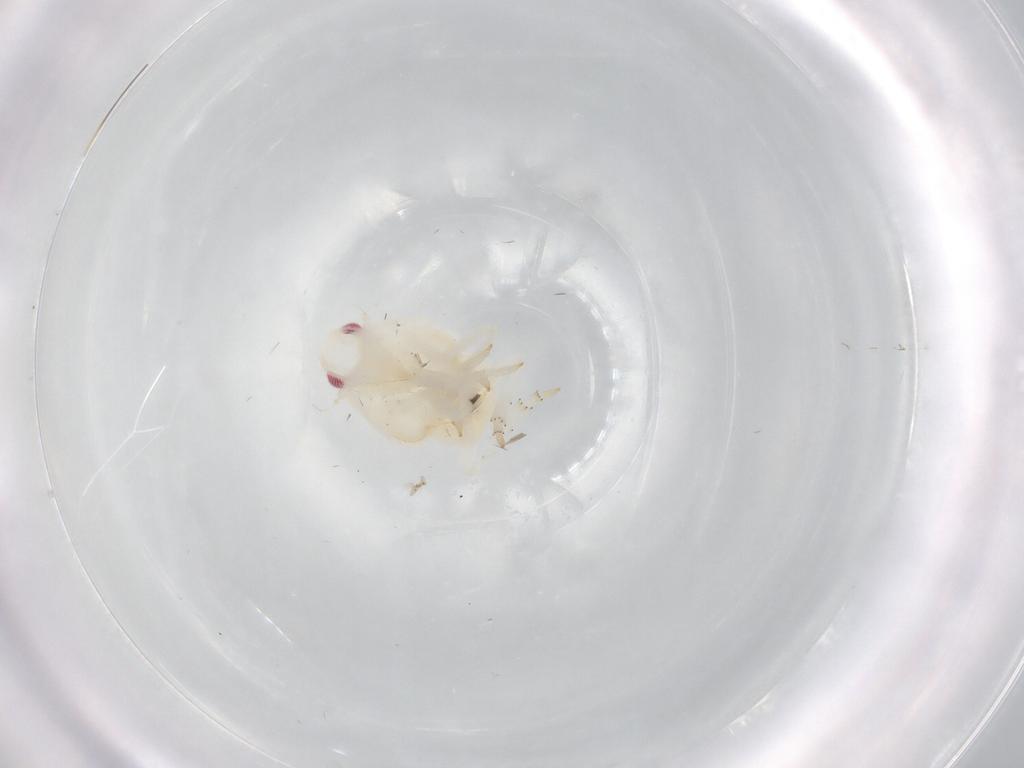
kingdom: Animalia
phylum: Arthropoda
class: Insecta
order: Hemiptera
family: Flatidae
